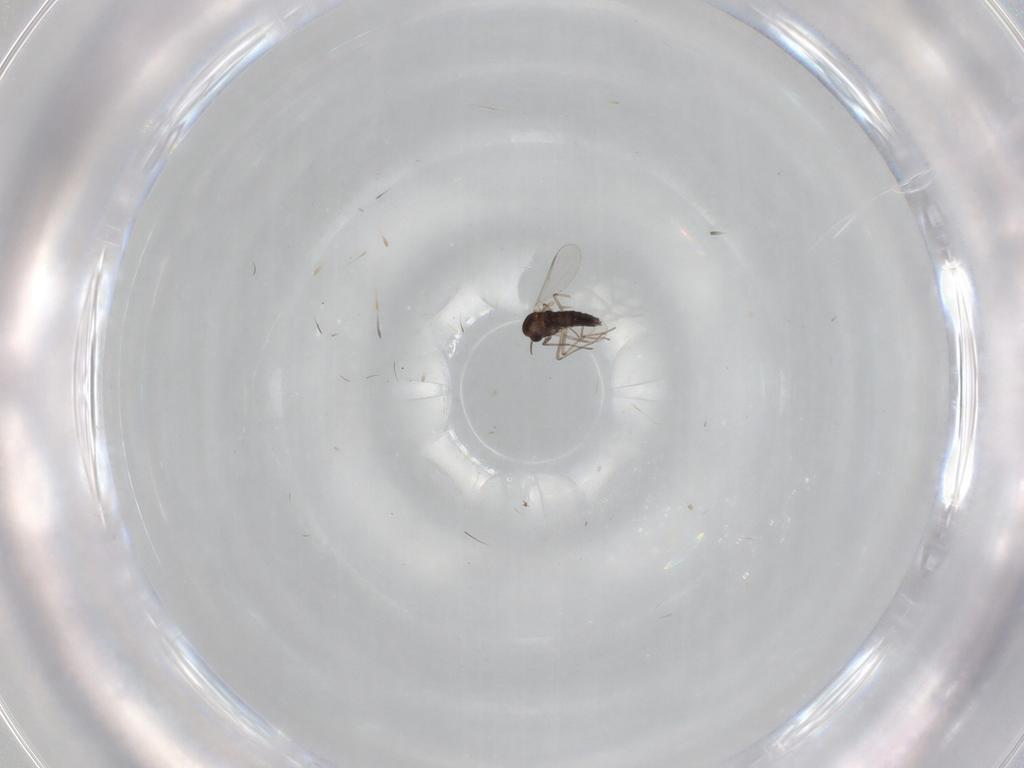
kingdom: Animalia
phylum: Arthropoda
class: Insecta
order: Diptera
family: Chironomidae
